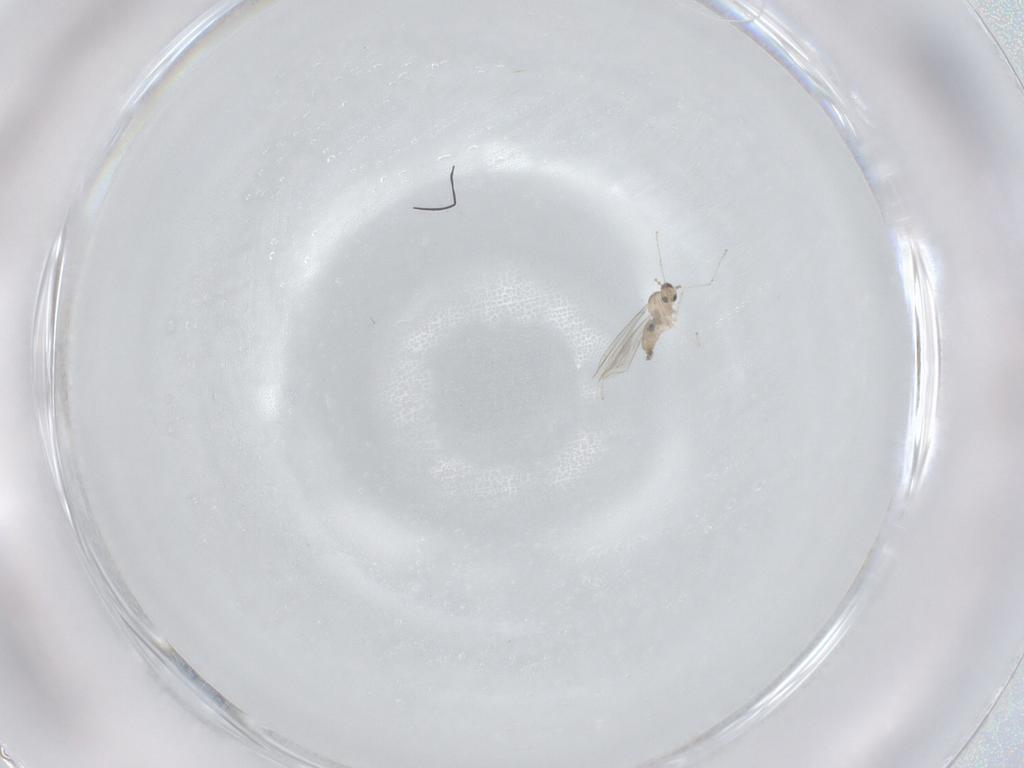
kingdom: Animalia
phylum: Arthropoda
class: Insecta
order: Diptera
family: Cecidomyiidae
